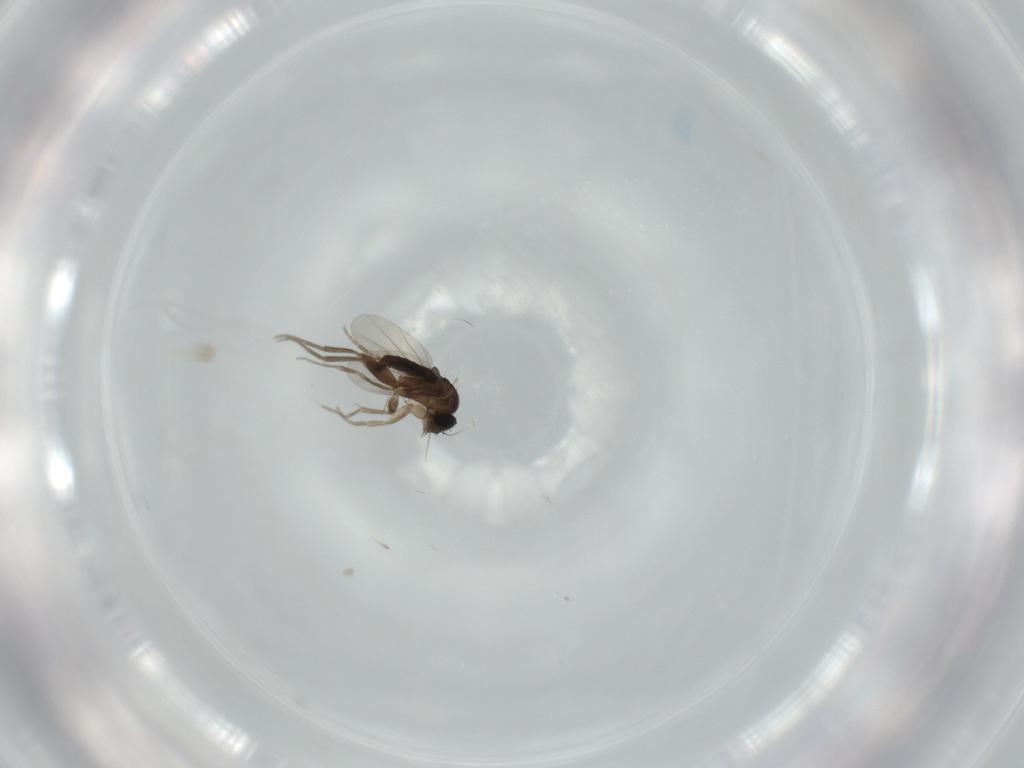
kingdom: Animalia
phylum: Arthropoda
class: Insecta
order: Diptera
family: Phoridae
